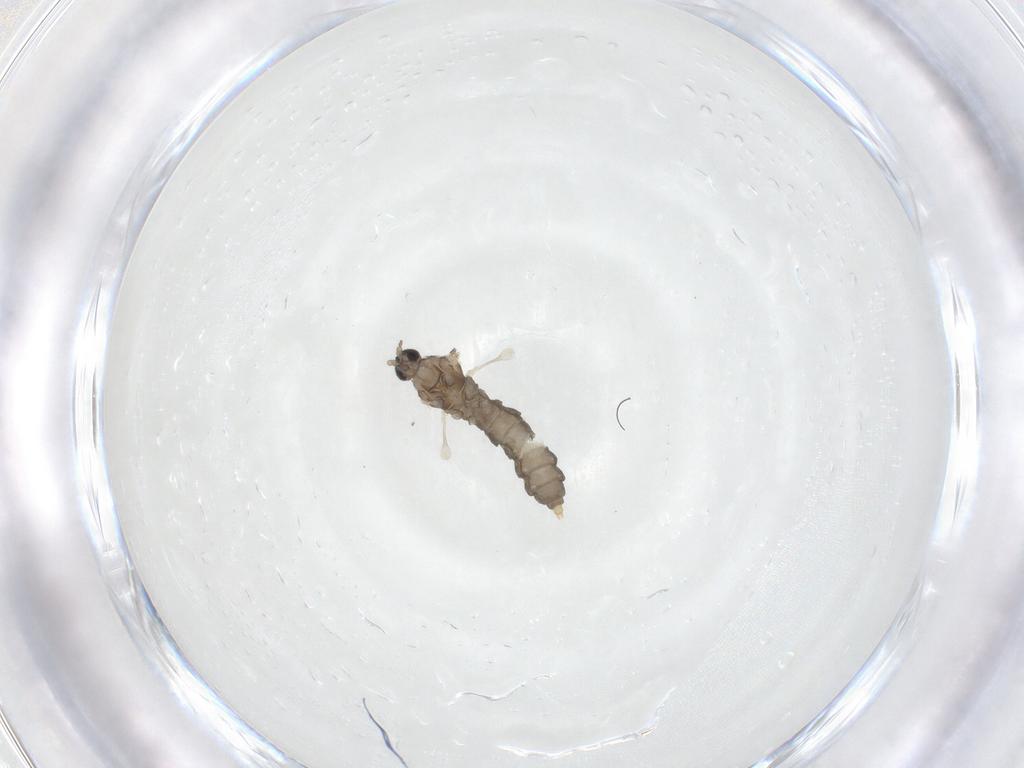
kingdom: Animalia
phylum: Arthropoda
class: Insecta
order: Diptera
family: Cecidomyiidae
